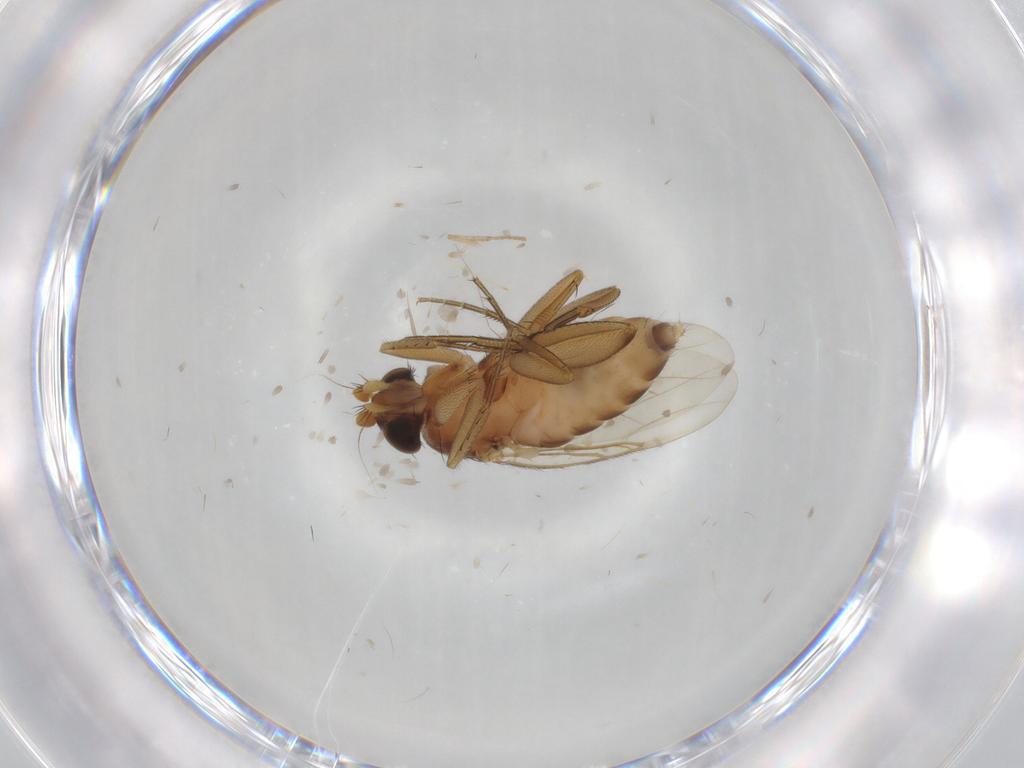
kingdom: Animalia
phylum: Arthropoda
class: Insecta
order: Diptera
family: Psychodidae
